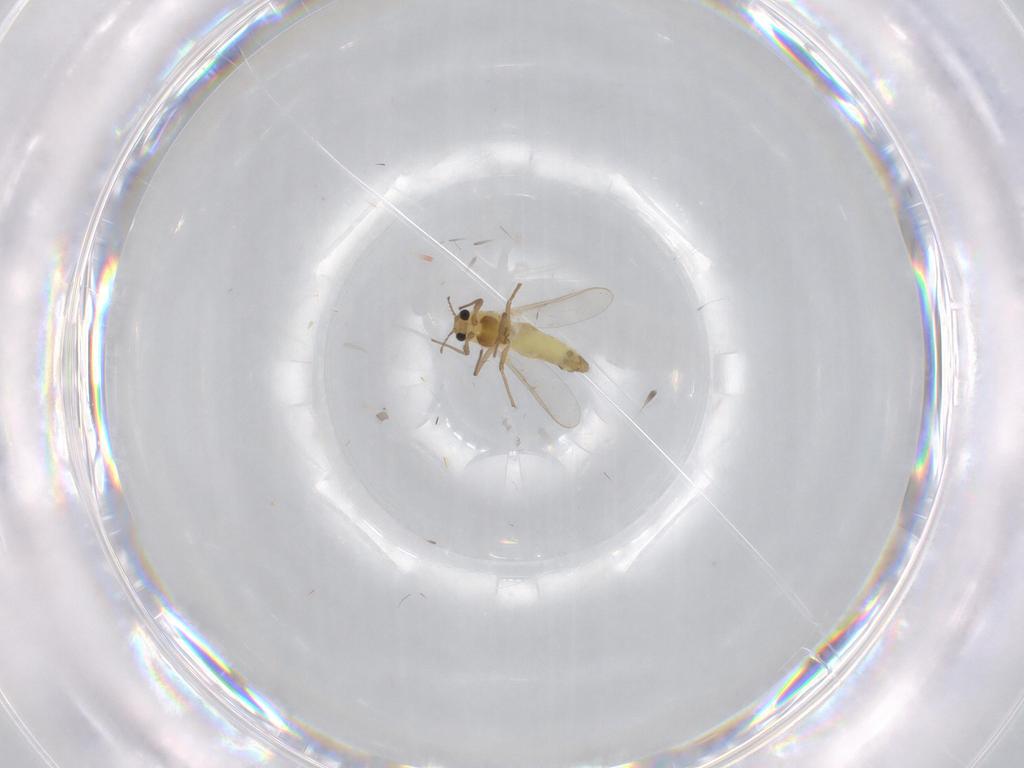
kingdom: Animalia
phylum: Arthropoda
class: Insecta
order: Diptera
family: Chironomidae
